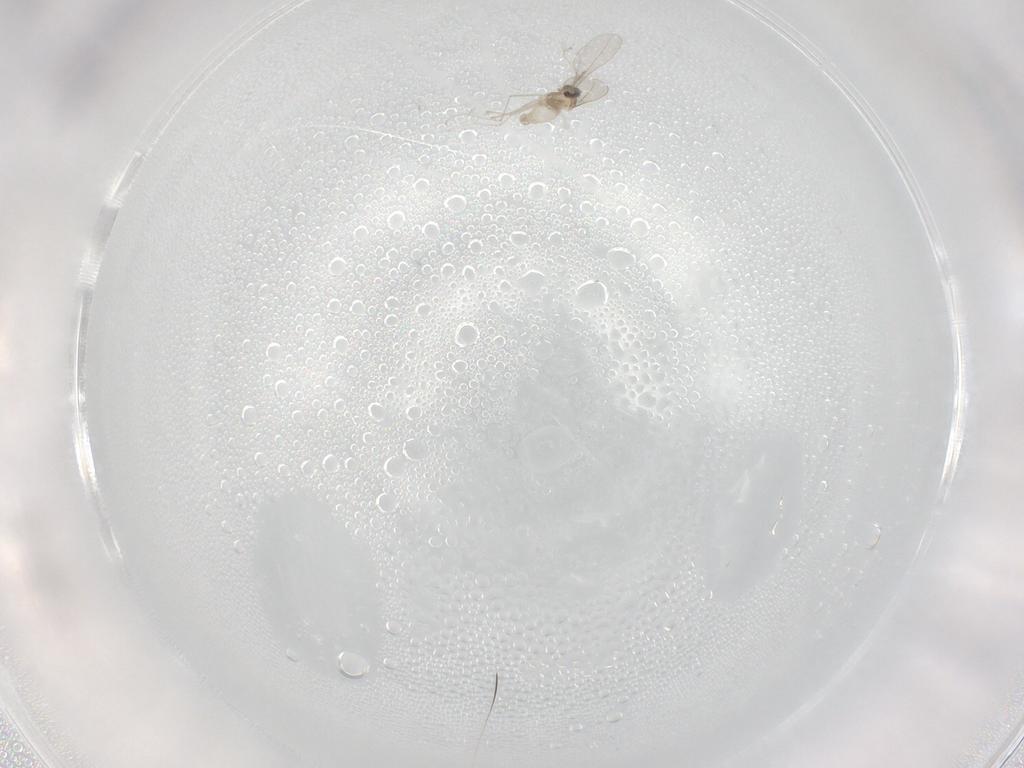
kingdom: Animalia
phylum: Arthropoda
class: Insecta
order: Diptera
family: Cecidomyiidae
